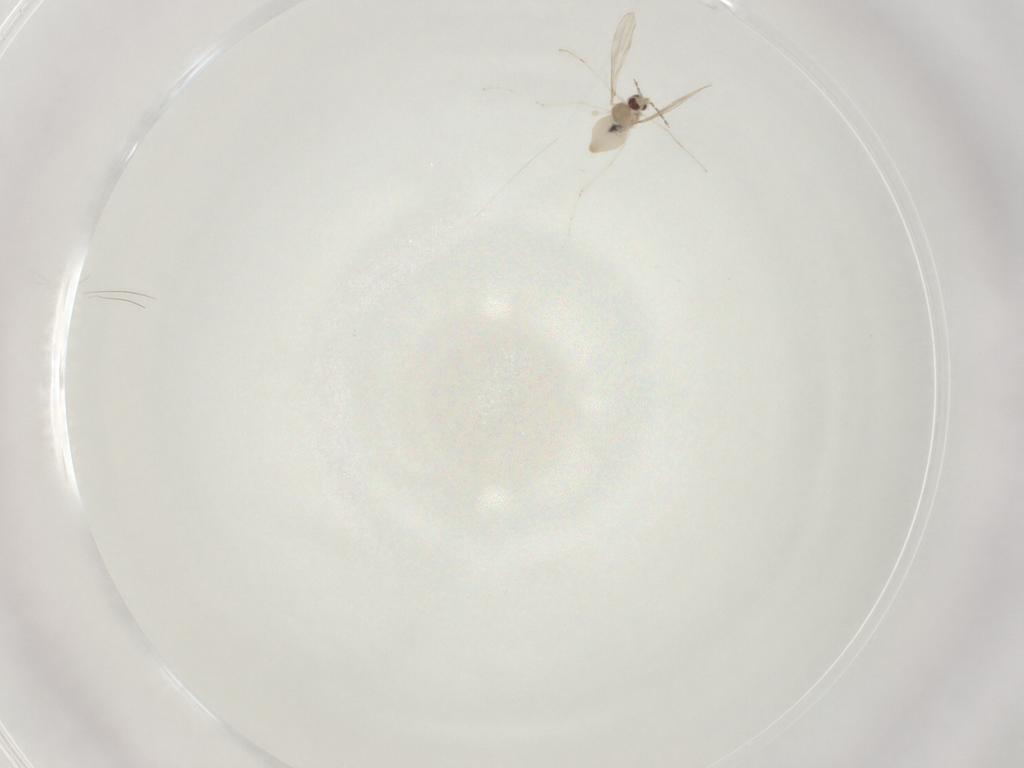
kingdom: Animalia
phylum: Arthropoda
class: Insecta
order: Diptera
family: Cecidomyiidae
